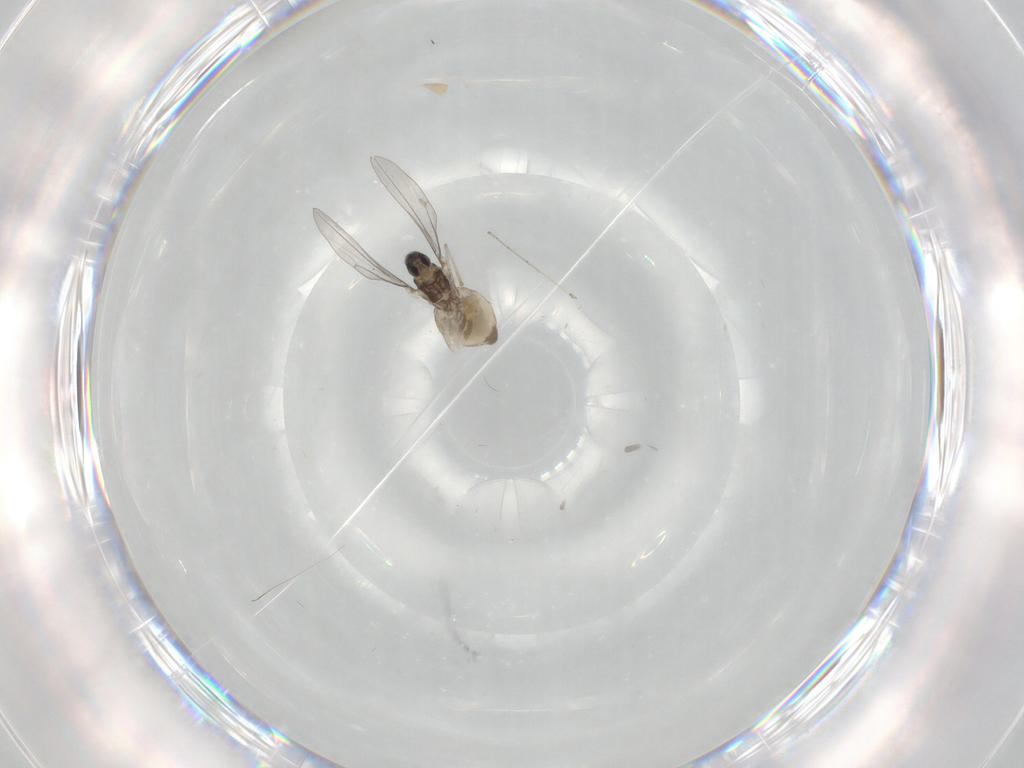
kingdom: Animalia
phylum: Arthropoda
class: Insecta
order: Diptera
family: Cecidomyiidae
